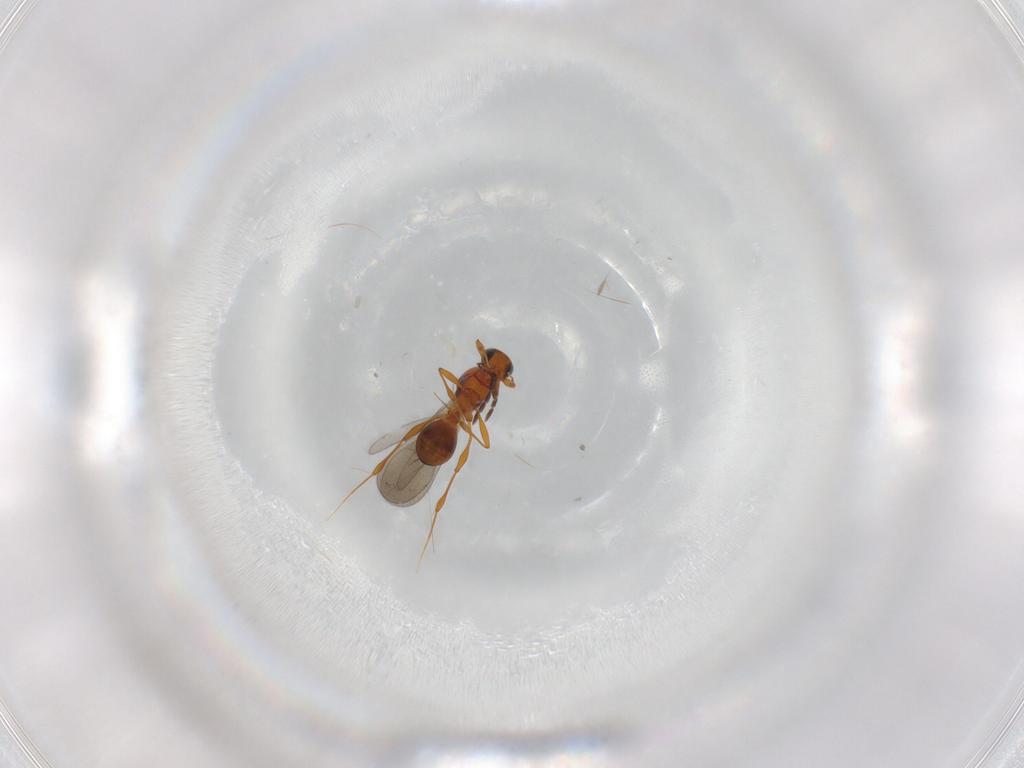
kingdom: Animalia
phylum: Arthropoda
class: Insecta
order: Hymenoptera
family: Platygastridae
